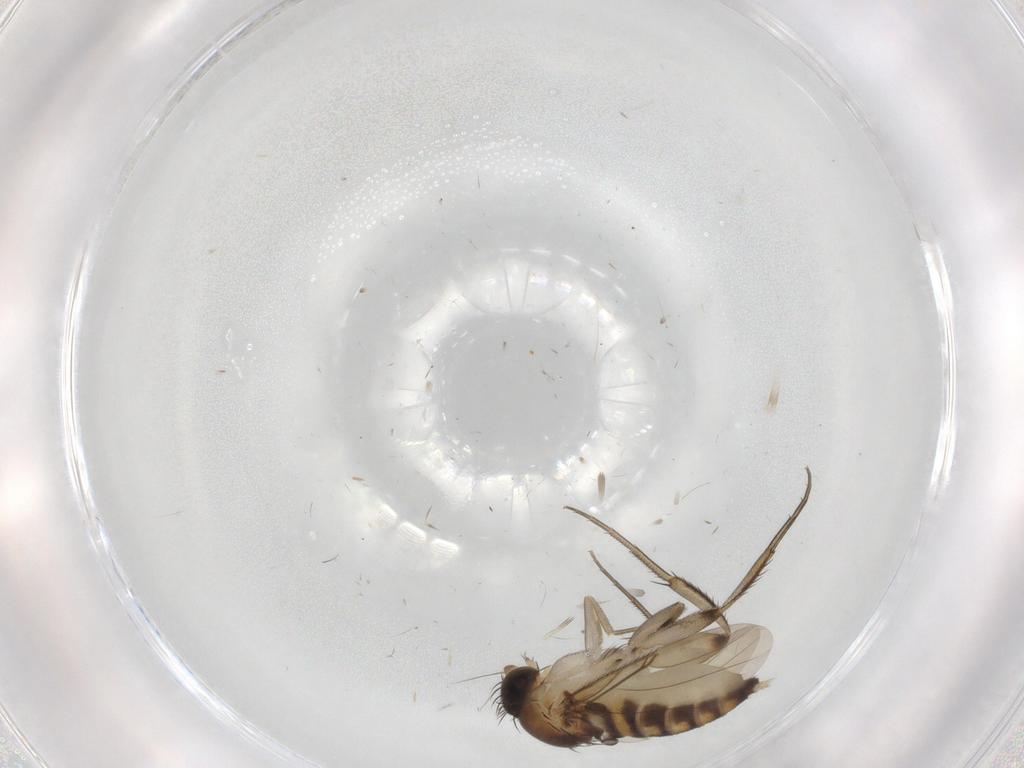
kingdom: Animalia
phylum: Arthropoda
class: Insecta
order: Diptera
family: Phoridae
